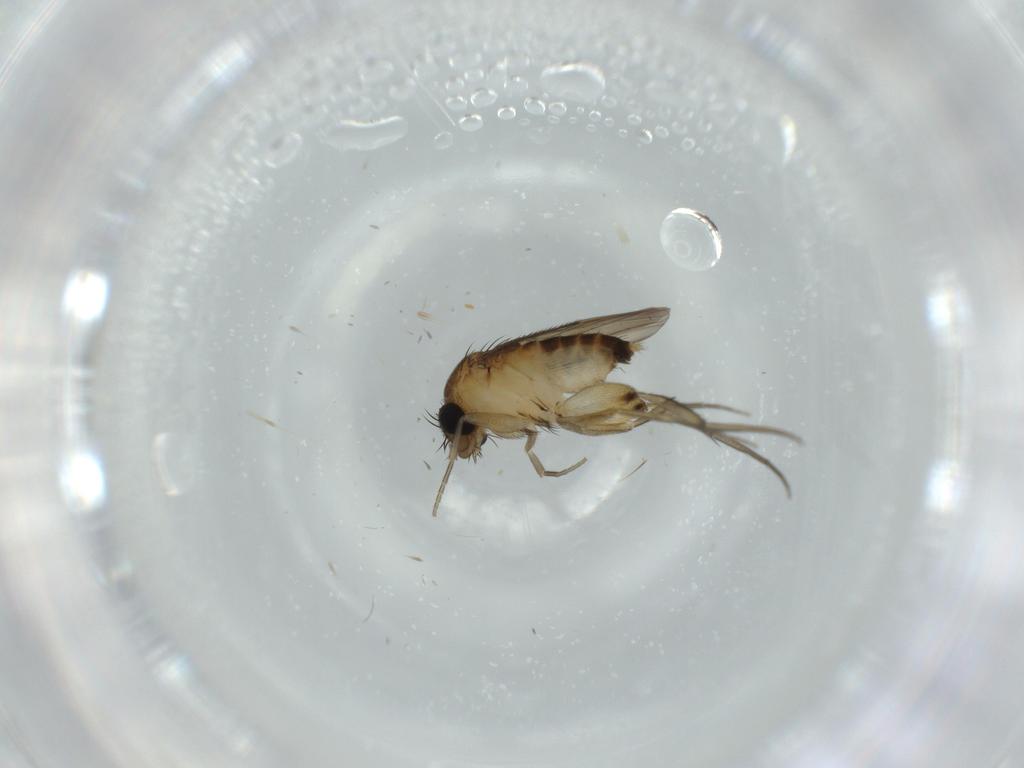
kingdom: Animalia
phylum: Arthropoda
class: Insecta
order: Diptera
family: Phoridae
